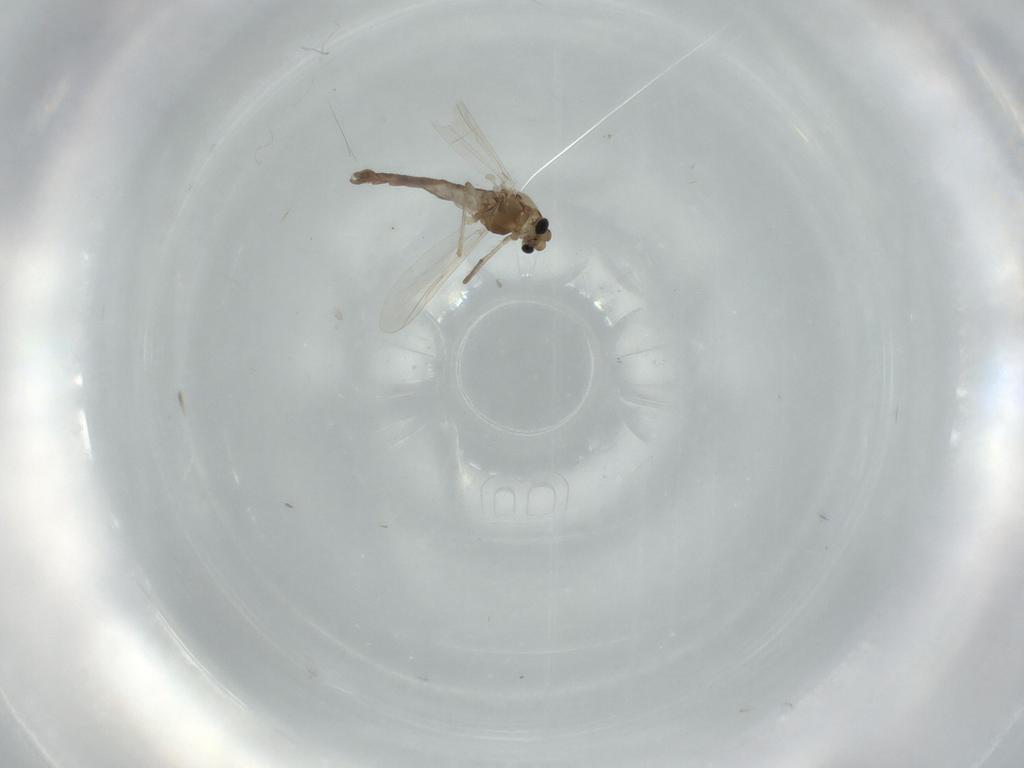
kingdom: Animalia
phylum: Arthropoda
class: Insecta
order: Diptera
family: Chironomidae
